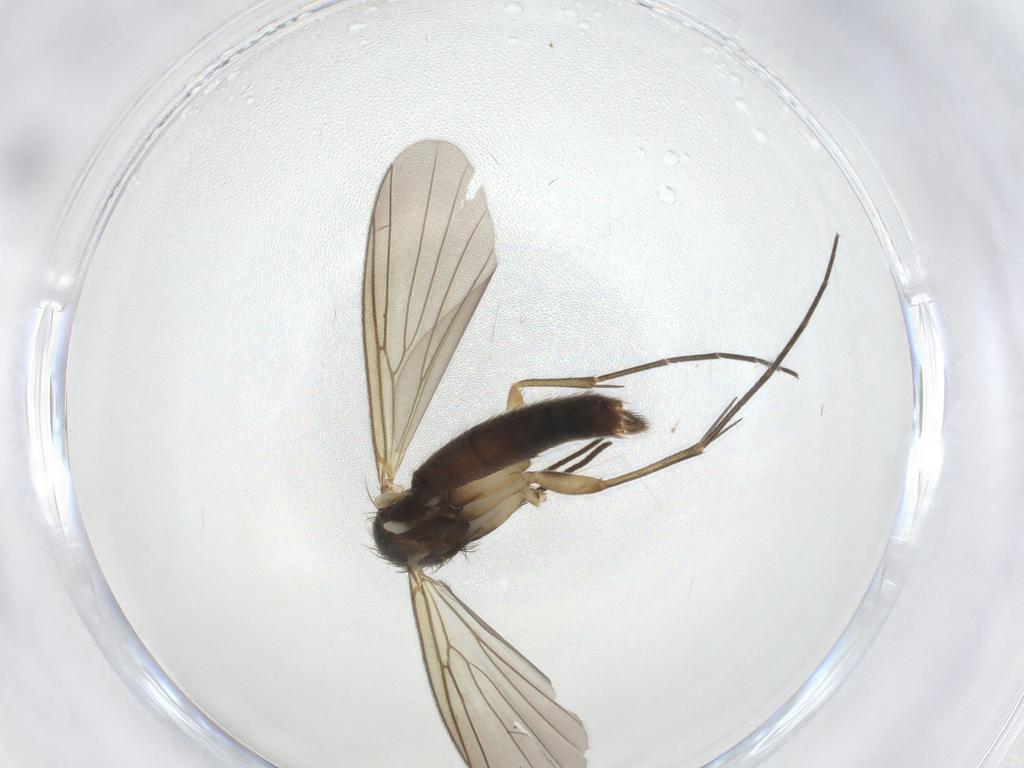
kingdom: Animalia
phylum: Arthropoda
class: Insecta
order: Diptera
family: Mycetophilidae
